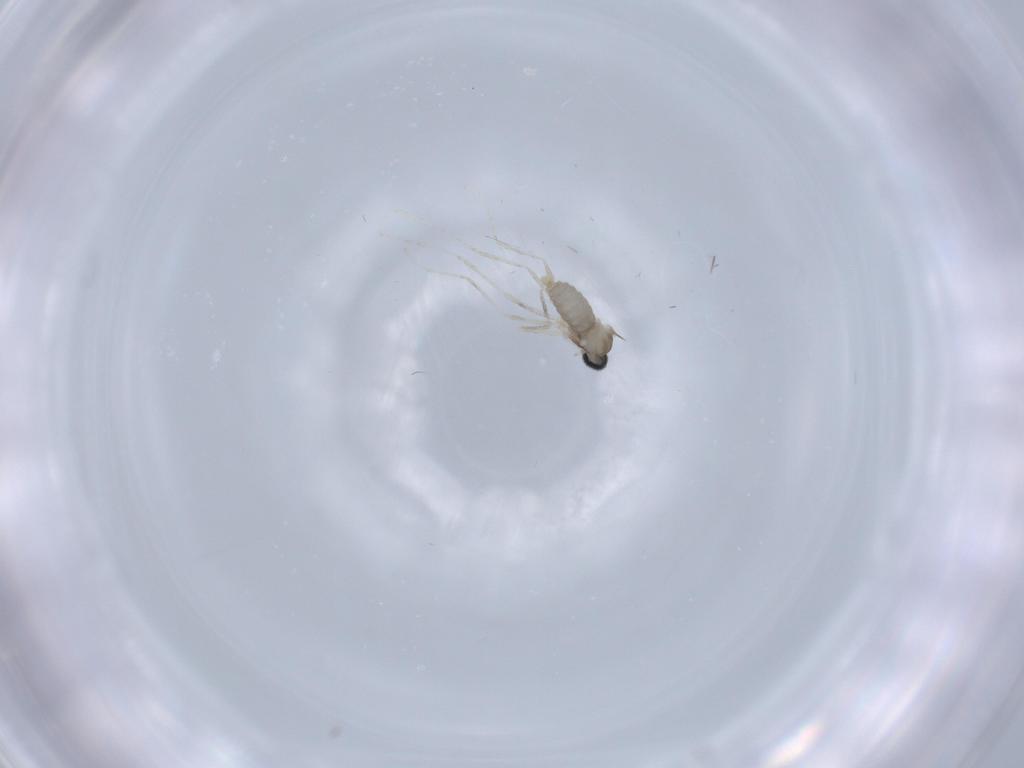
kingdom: Animalia
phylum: Arthropoda
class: Insecta
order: Diptera
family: Cecidomyiidae
